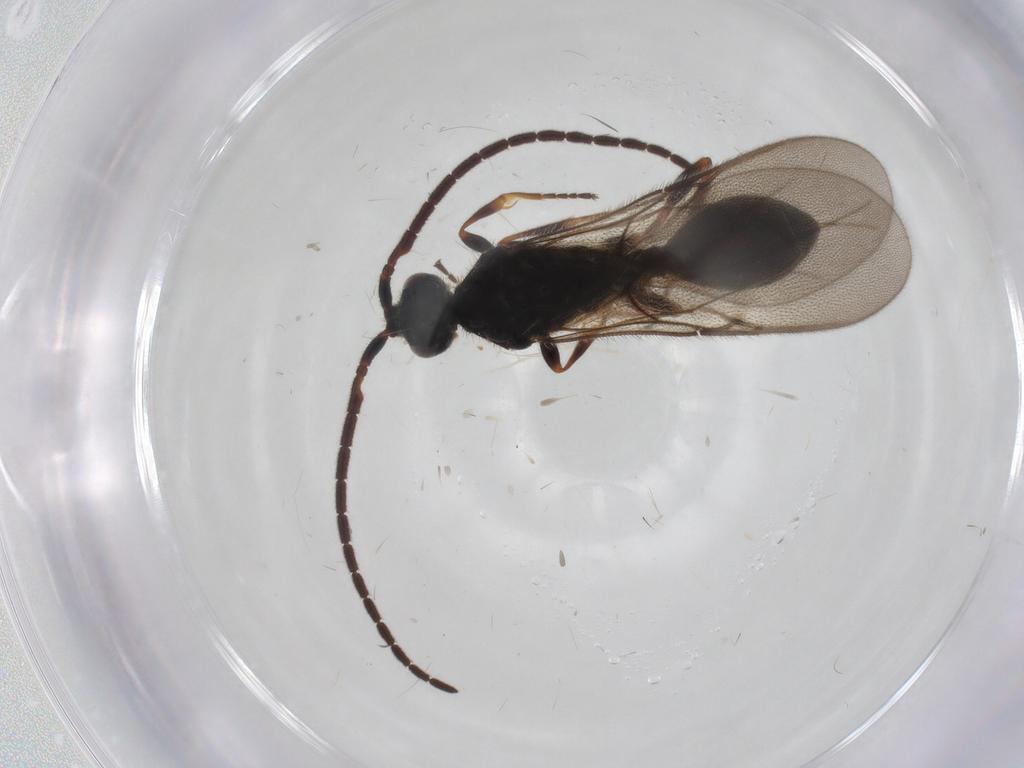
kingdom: Animalia
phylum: Arthropoda
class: Insecta
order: Hymenoptera
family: Diapriidae
